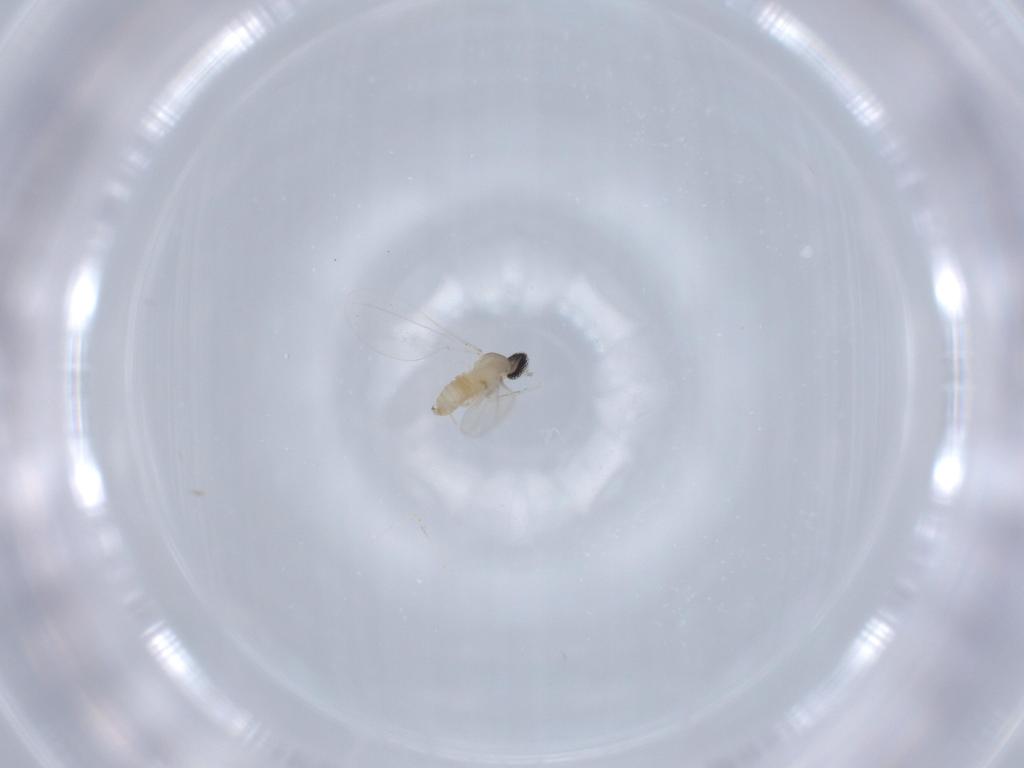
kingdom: Animalia
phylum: Arthropoda
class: Insecta
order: Diptera
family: Cecidomyiidae
